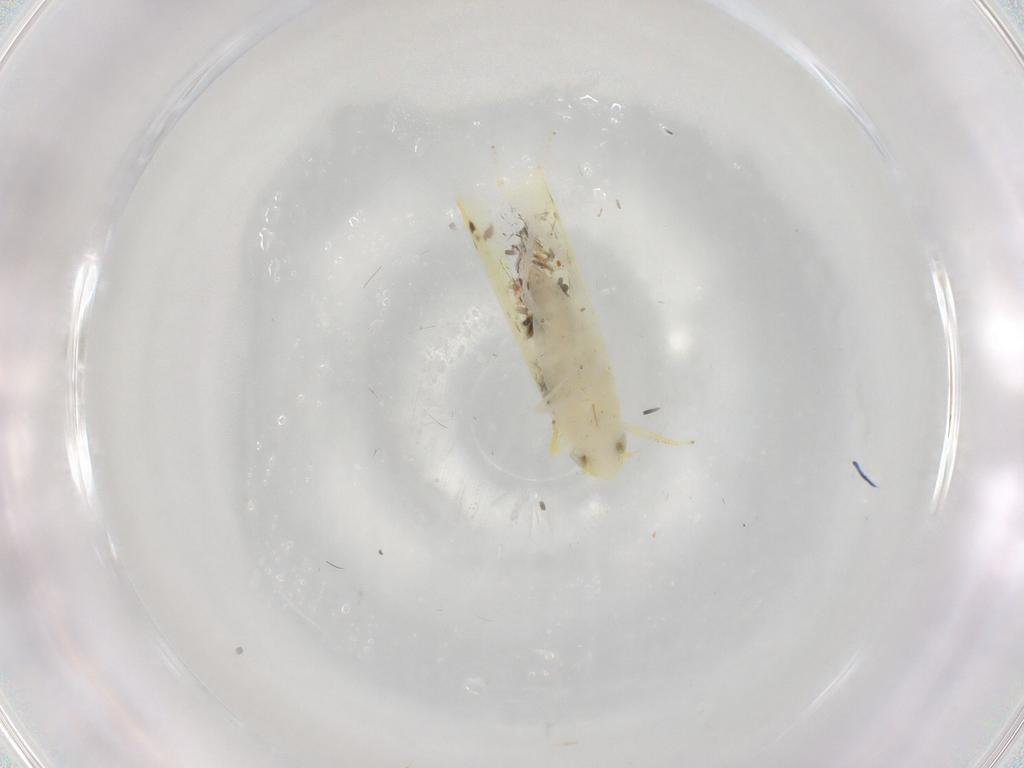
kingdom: Animalia
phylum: Arthropoda
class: Insecta
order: Hemiptera
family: Cicadellidae
